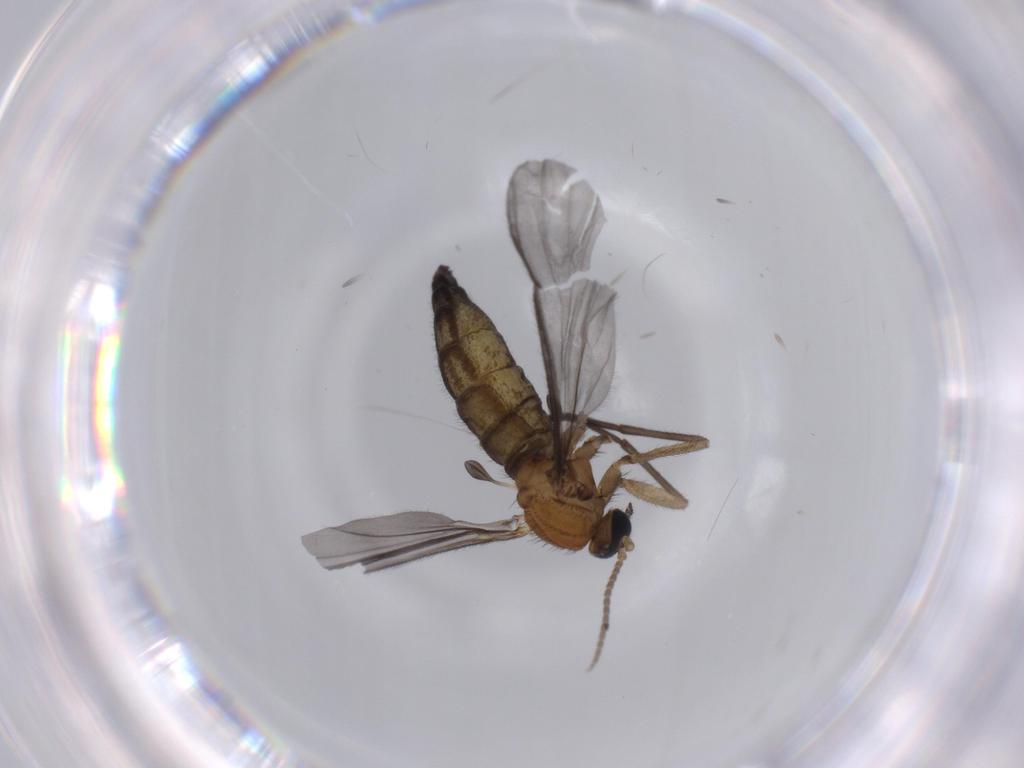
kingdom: Animalia
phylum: Arthropoda
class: Insecta
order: Diptera
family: Sciaridae
